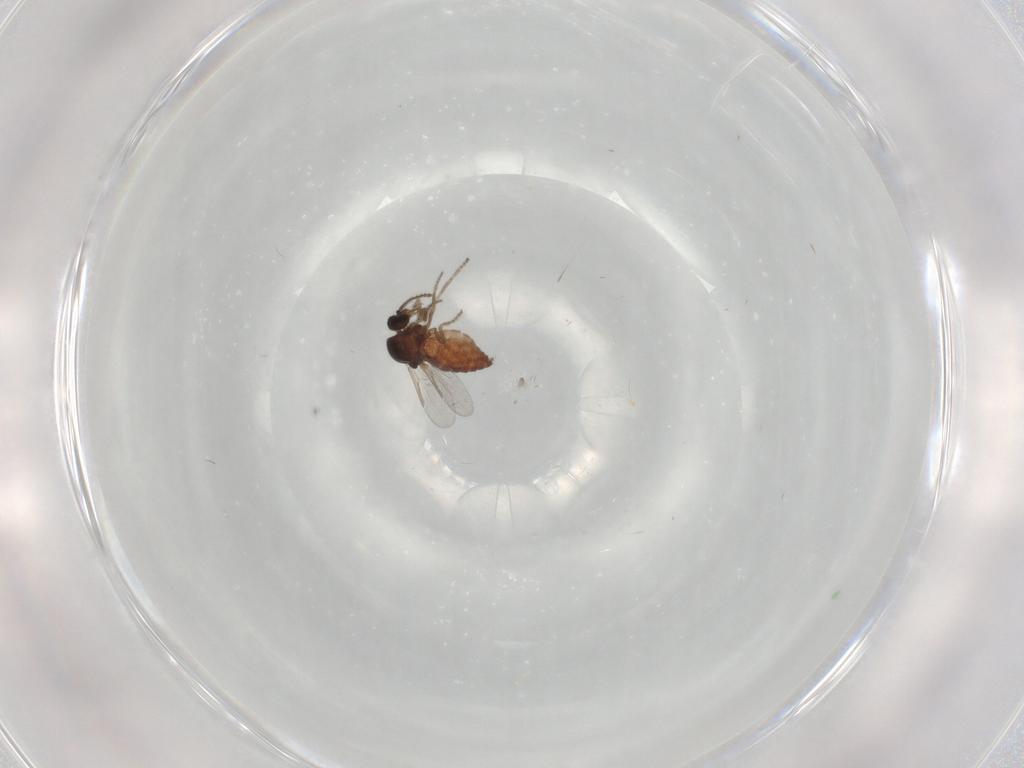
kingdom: Animalia
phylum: Arthropoda
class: Insecta
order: Diptera
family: Ceratopogonidae
